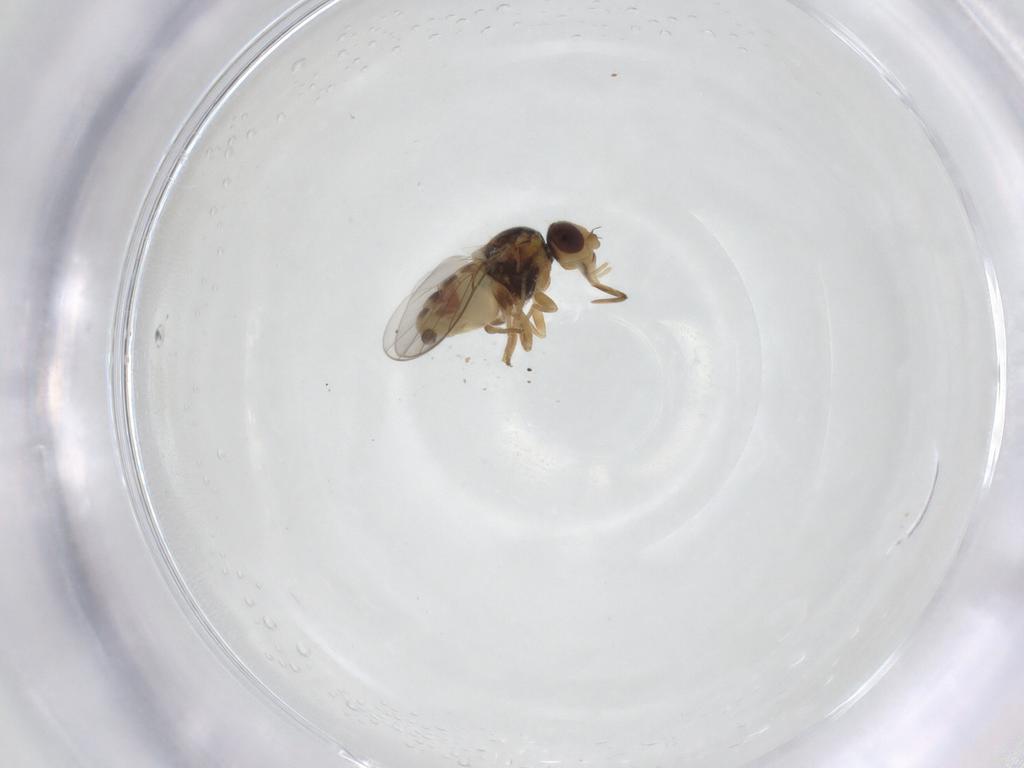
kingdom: Animalia
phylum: Arthropoda
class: Insecta
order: Diptera
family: Chloropidae
